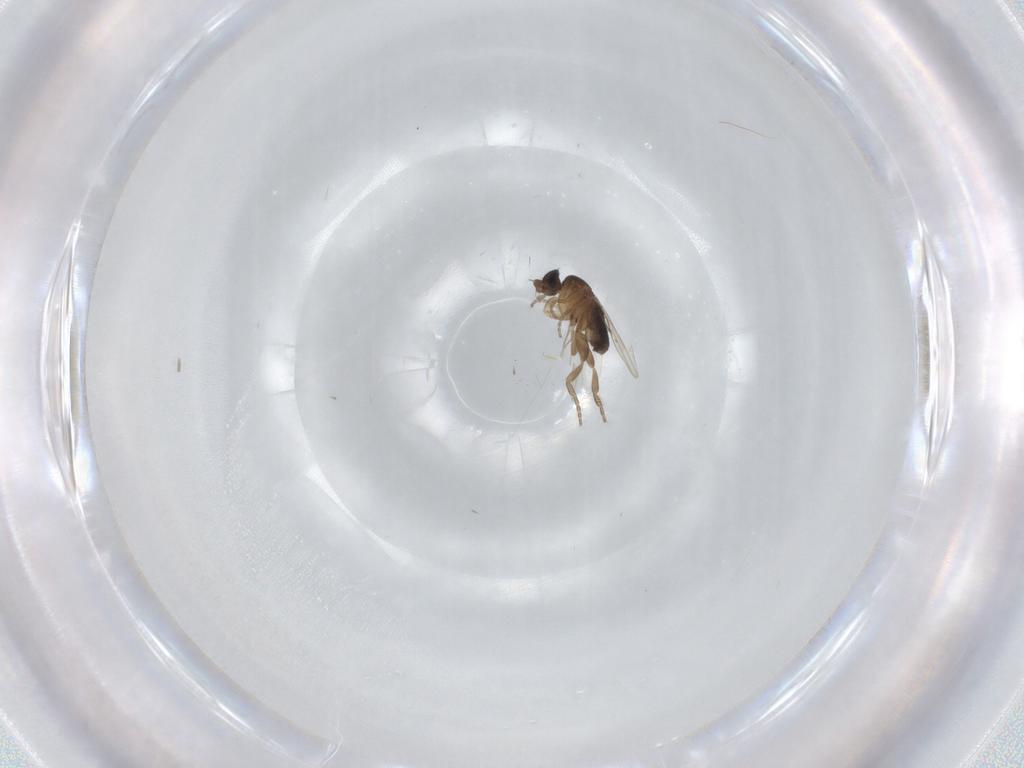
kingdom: Animalia
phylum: Arthropoda
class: Insecta
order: Diptera
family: Phoridae
